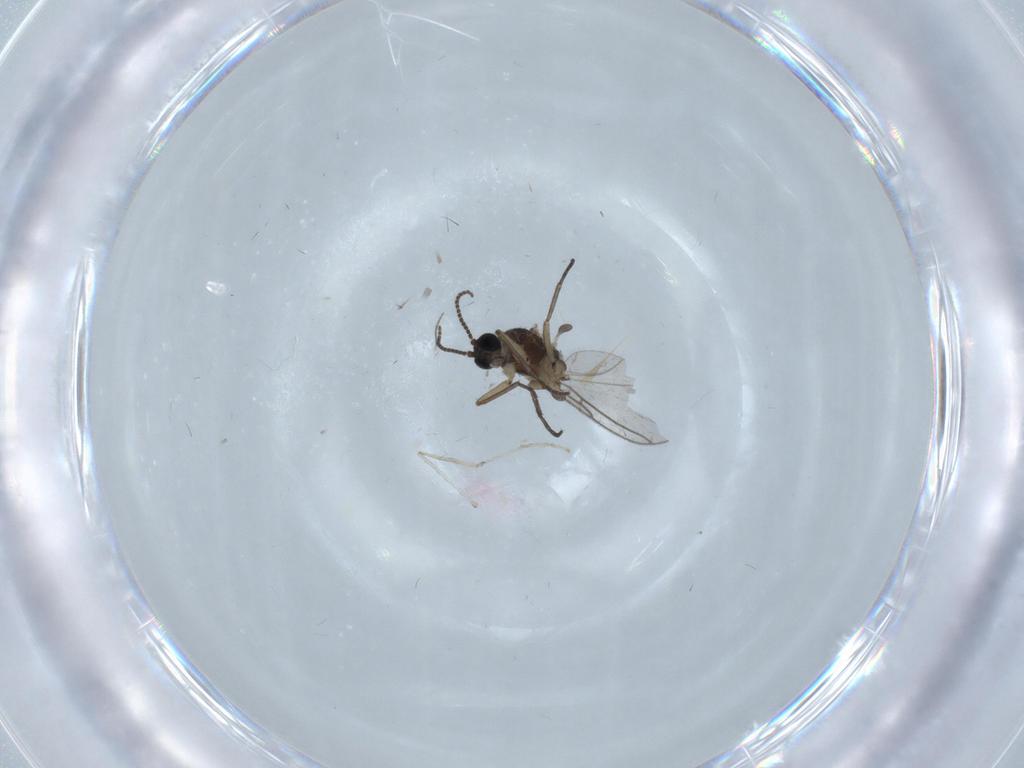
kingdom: Animalia
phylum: Arthropoda
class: Insecta
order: Diptera
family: Sciaridae
